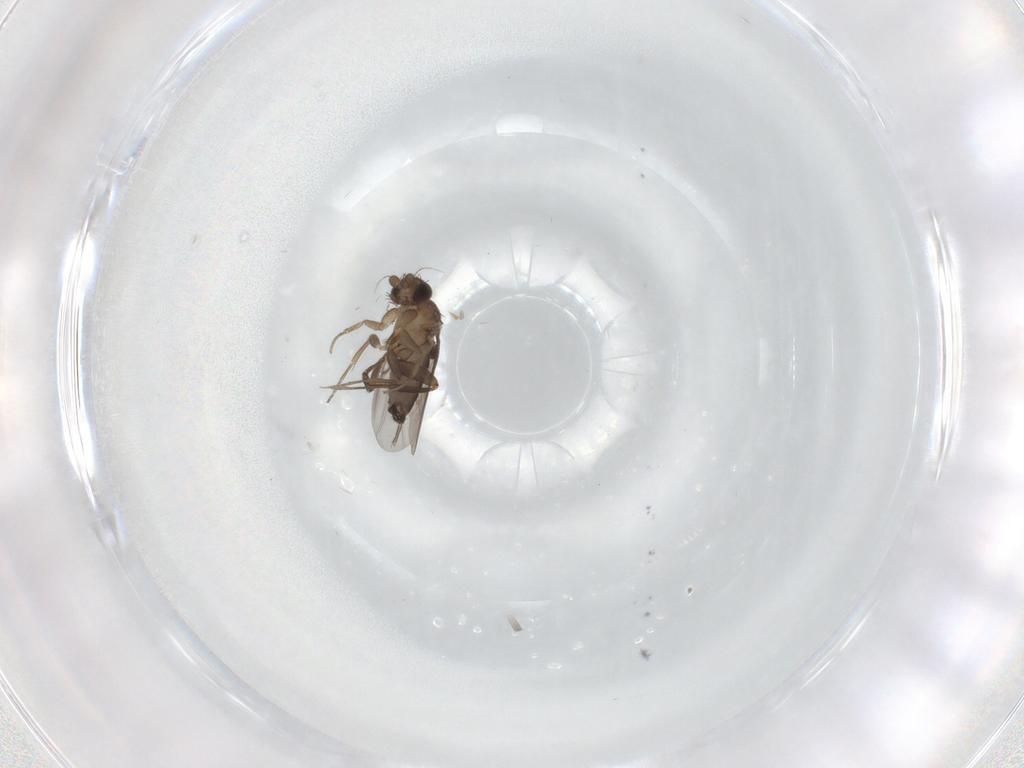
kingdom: Animalia
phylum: Arthropoda
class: Insecta
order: Diptera
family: Phoridae
